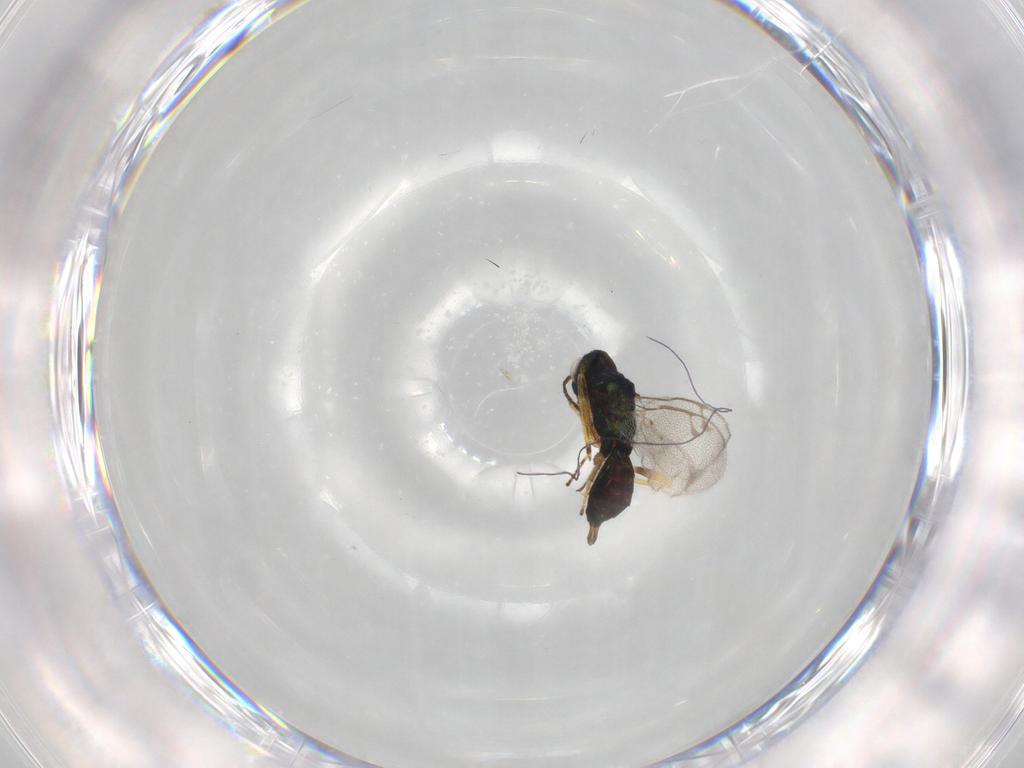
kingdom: Animalia
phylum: Arthropoda
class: Insecta
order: Hymenoptera
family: Pteromalidae
